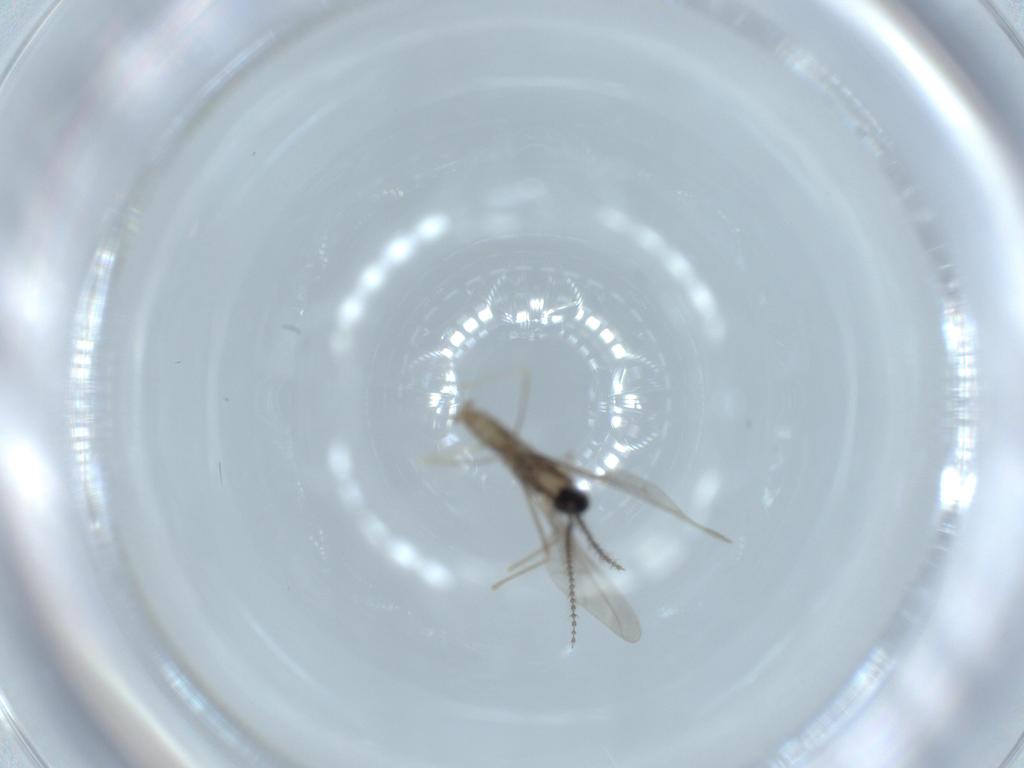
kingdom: Animalia
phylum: Arthropoda
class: Insecta
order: Diptera
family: Cecidomyiidae
